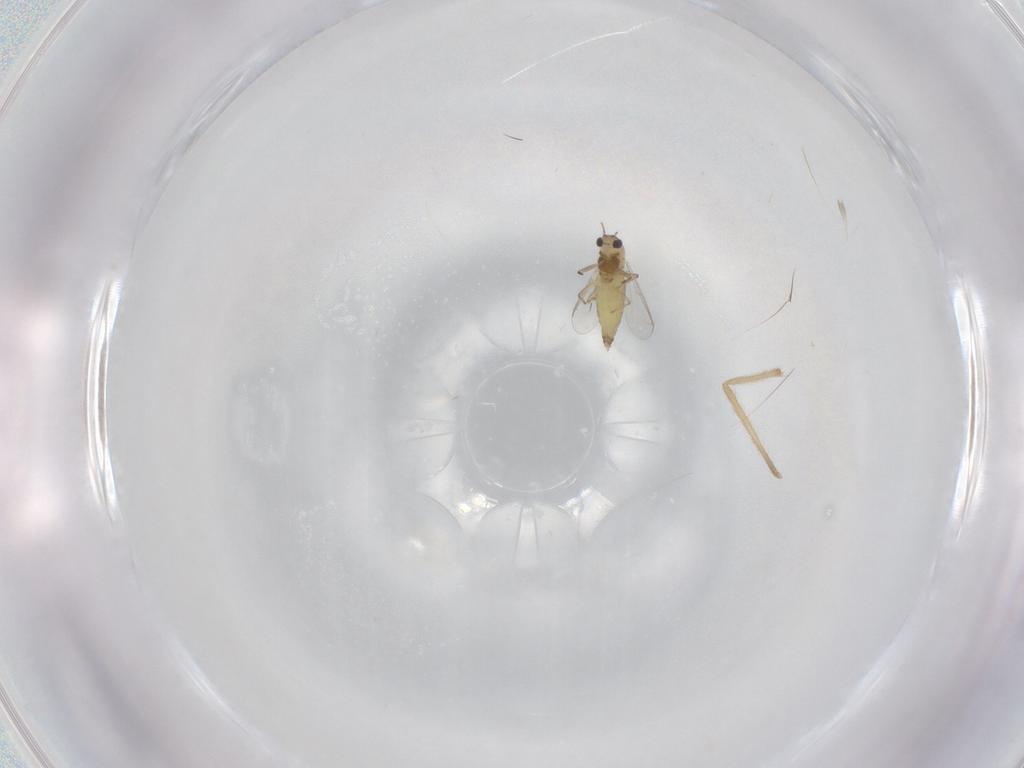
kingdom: Animalia
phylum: Arthropoda
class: Insecta
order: Diptera
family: Chironomidae
